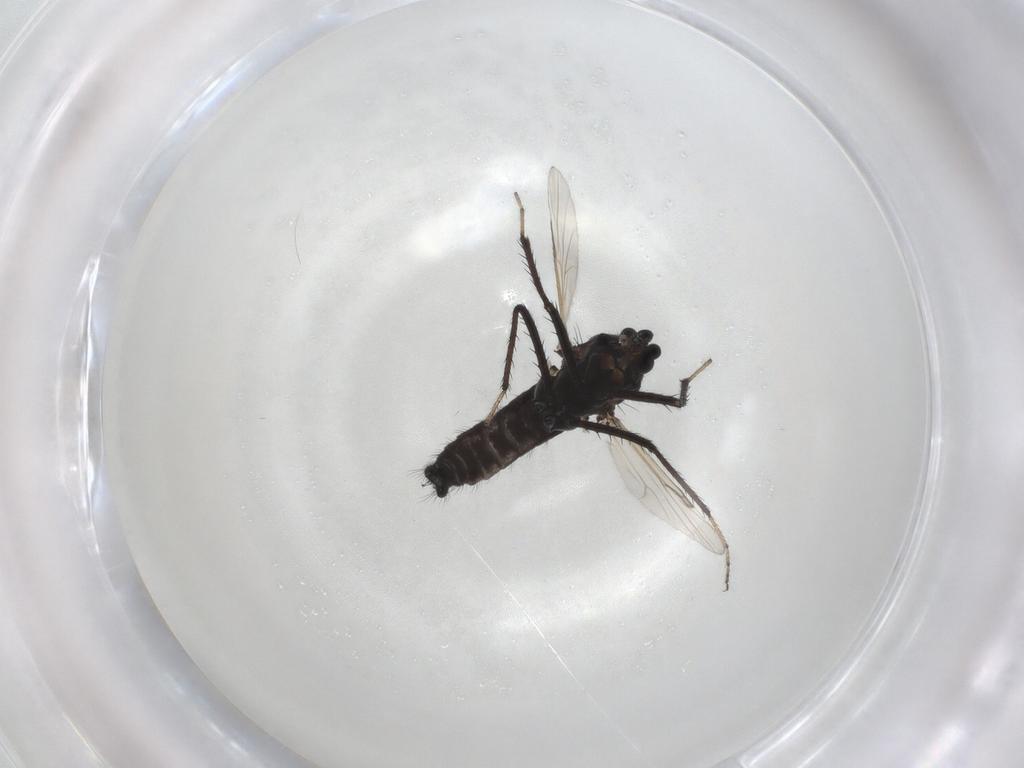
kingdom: Animalia
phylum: Arthropoda
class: Insecta
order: Diptera
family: Ceratopogonidae
